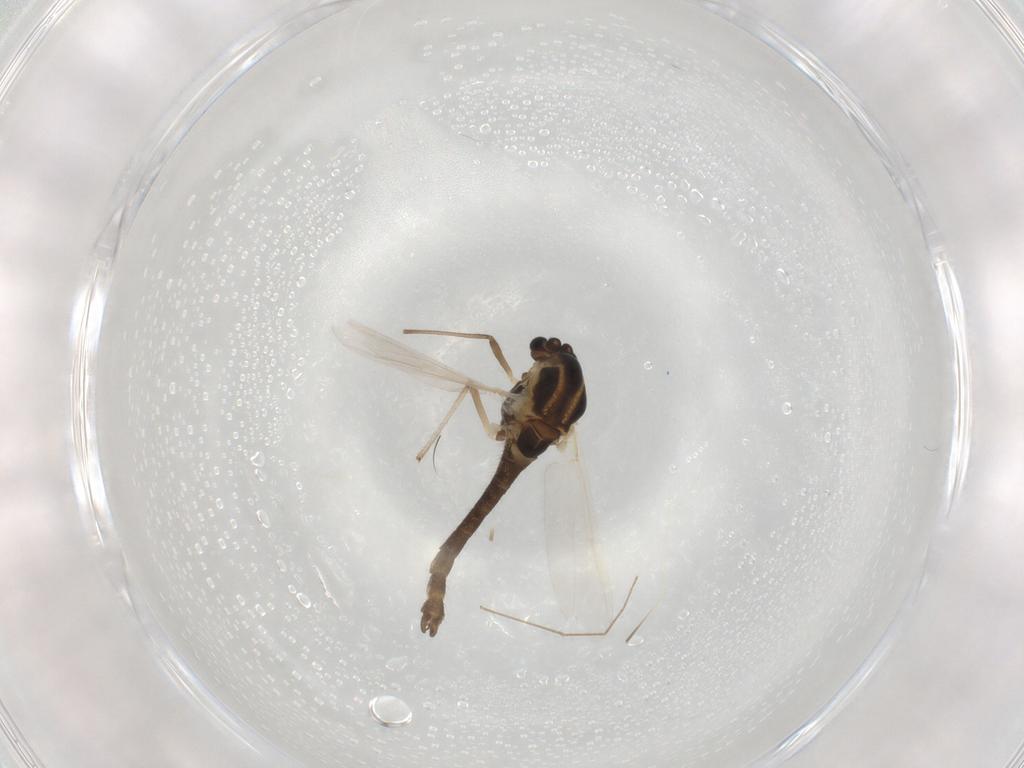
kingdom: Animalia
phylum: Arthropoda
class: Insecta
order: Diptera
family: Chironomidae
